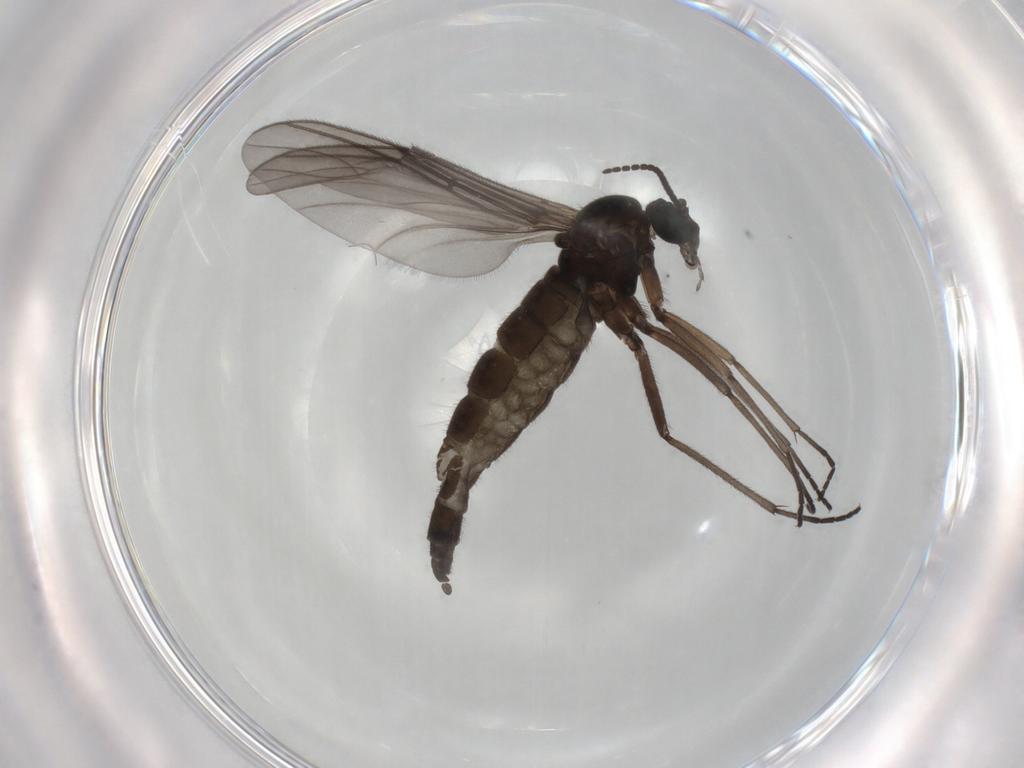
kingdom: Animalia
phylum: Arthropoda
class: Insecta
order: Diptera
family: Sciaridae
